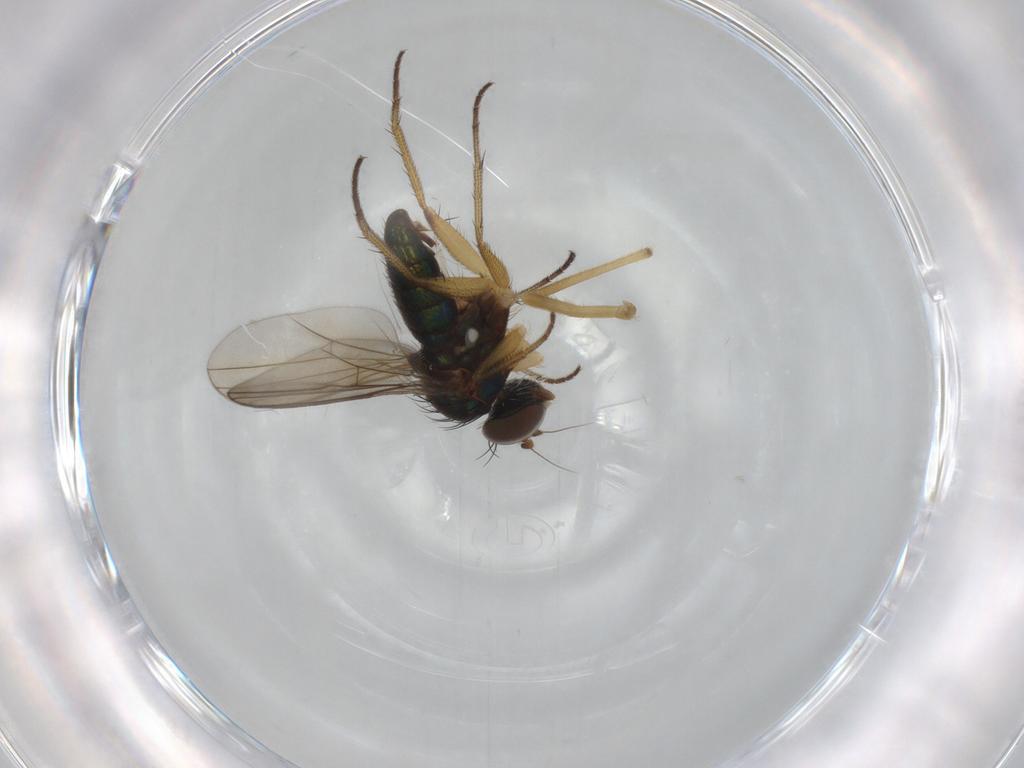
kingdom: Animalia
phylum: Arthropoda
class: Insecta
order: Diptera
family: Chironomidae
